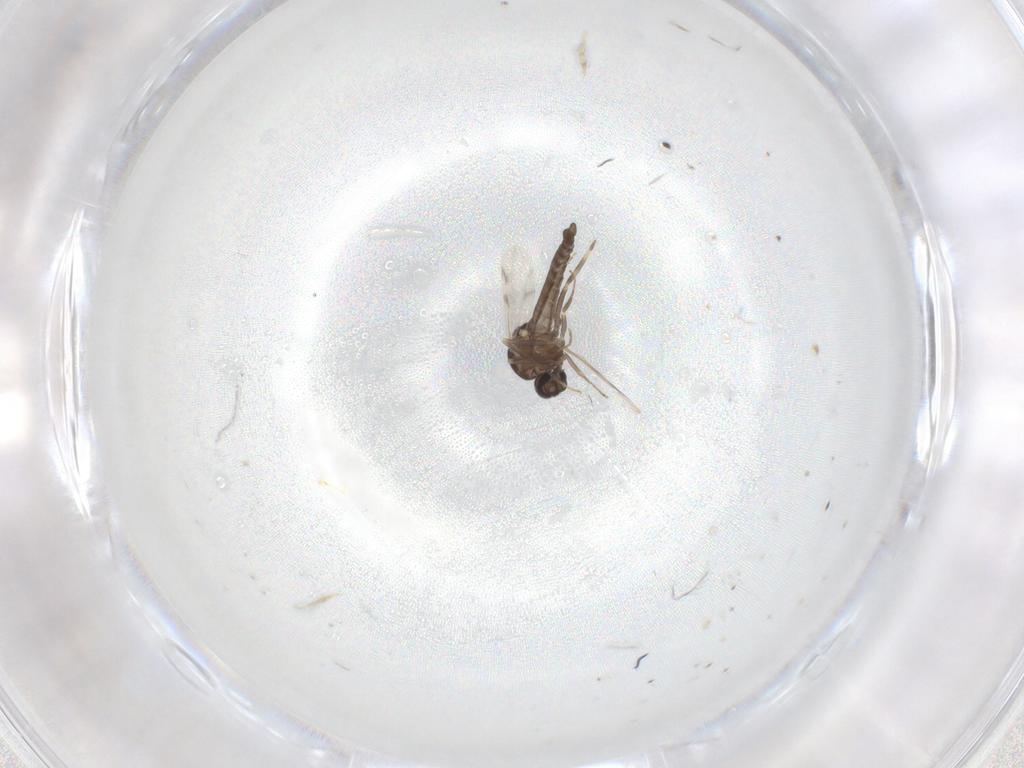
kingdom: Animalia
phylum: Arthropoda
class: Insecta
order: Diptera
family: Ceratopogonidae
